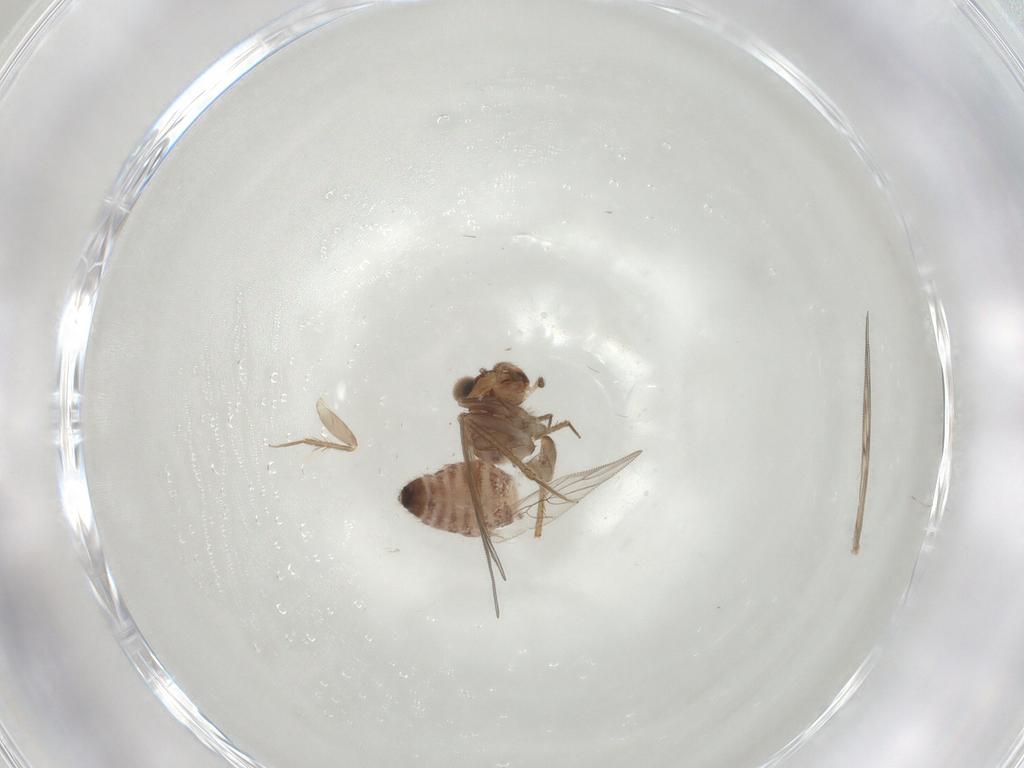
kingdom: Animalia
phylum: Arthropoda
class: Insecta
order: Psocodea
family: Lepidopsocidae
